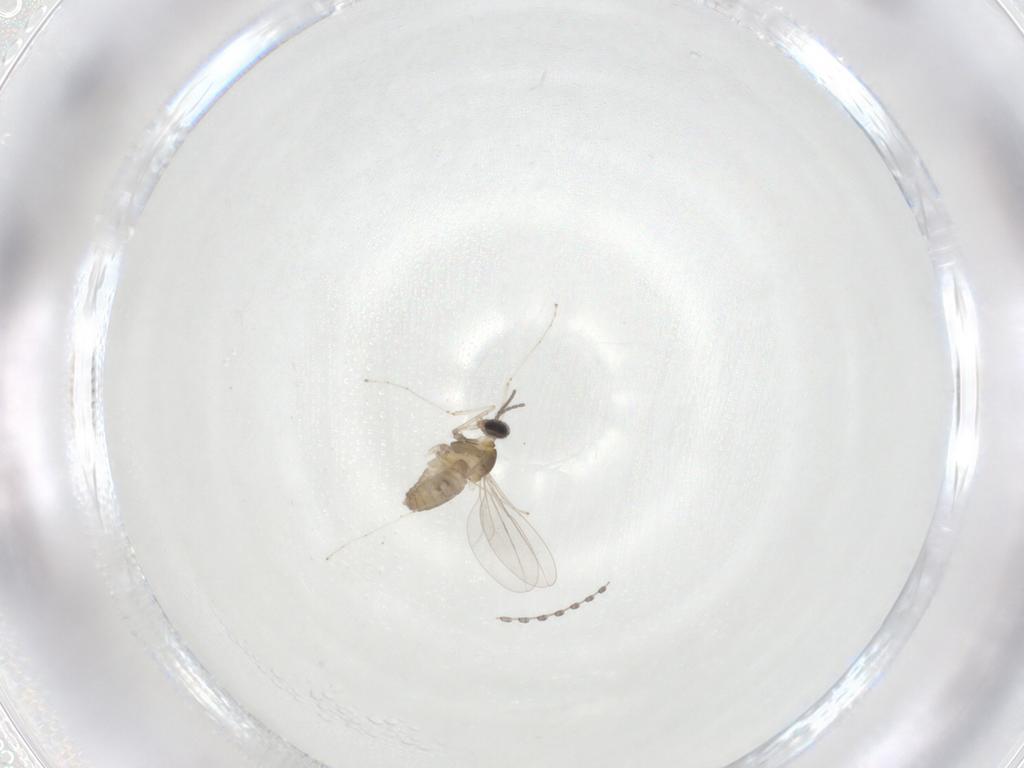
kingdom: Animalia
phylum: Arthropoda
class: Insecta
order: Diptera
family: Cecidomyiidae
